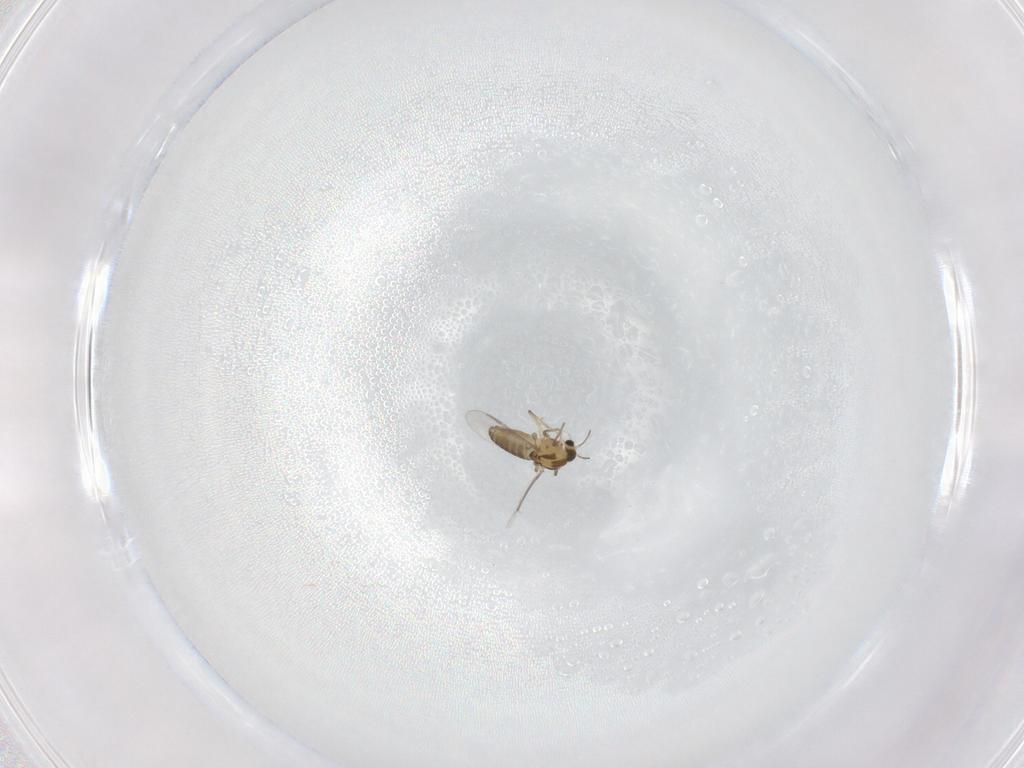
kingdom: Animalia
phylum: Arthropoda
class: Insecta
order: Diptera
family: Chironomidae
